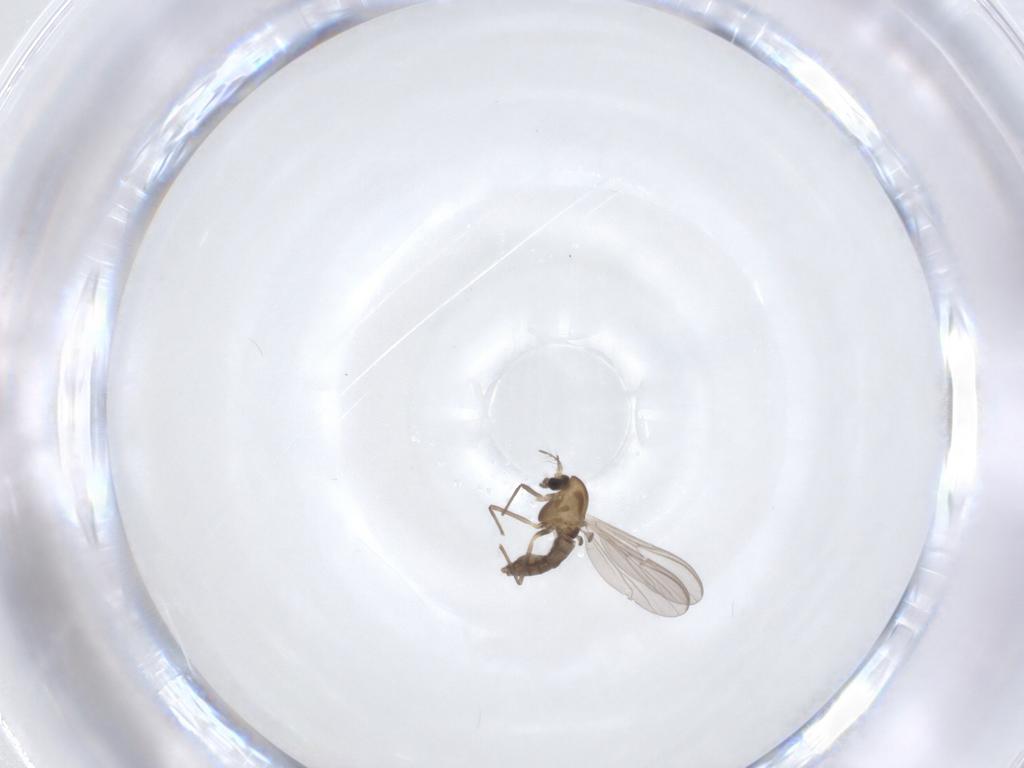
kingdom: Animalia
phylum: Arthropoda
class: Insecta
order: Diptera
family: Chironomidae
